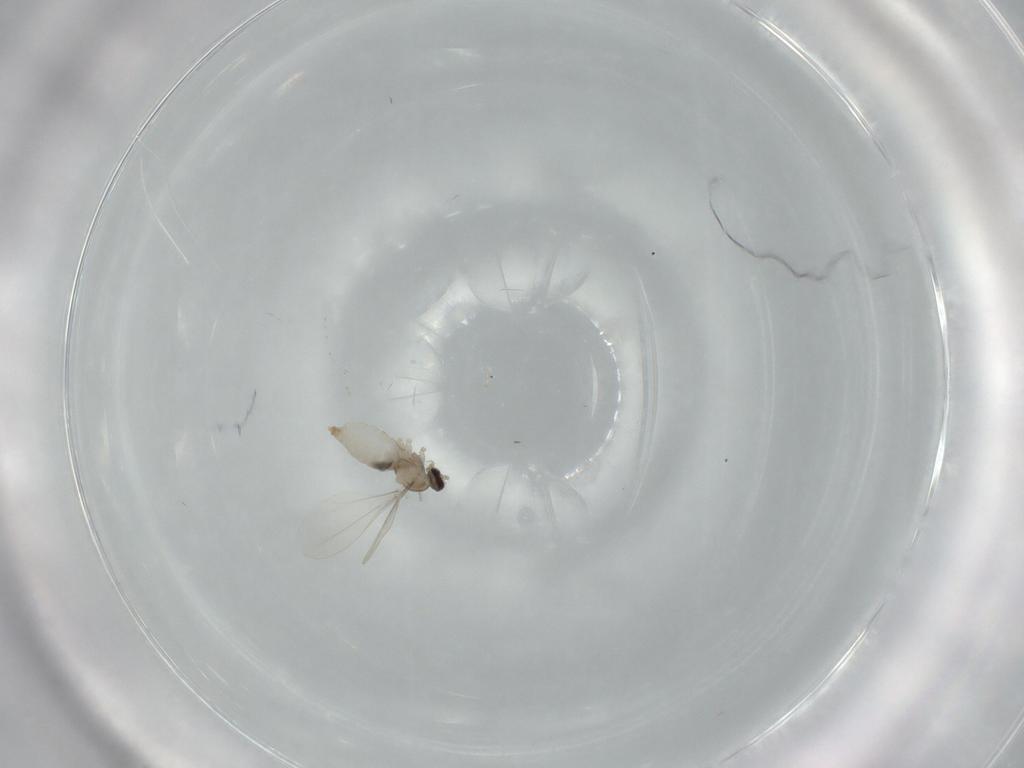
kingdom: Animalia
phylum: Arthropoda
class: Insecta
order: Diptera
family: Cecidomyiidae
